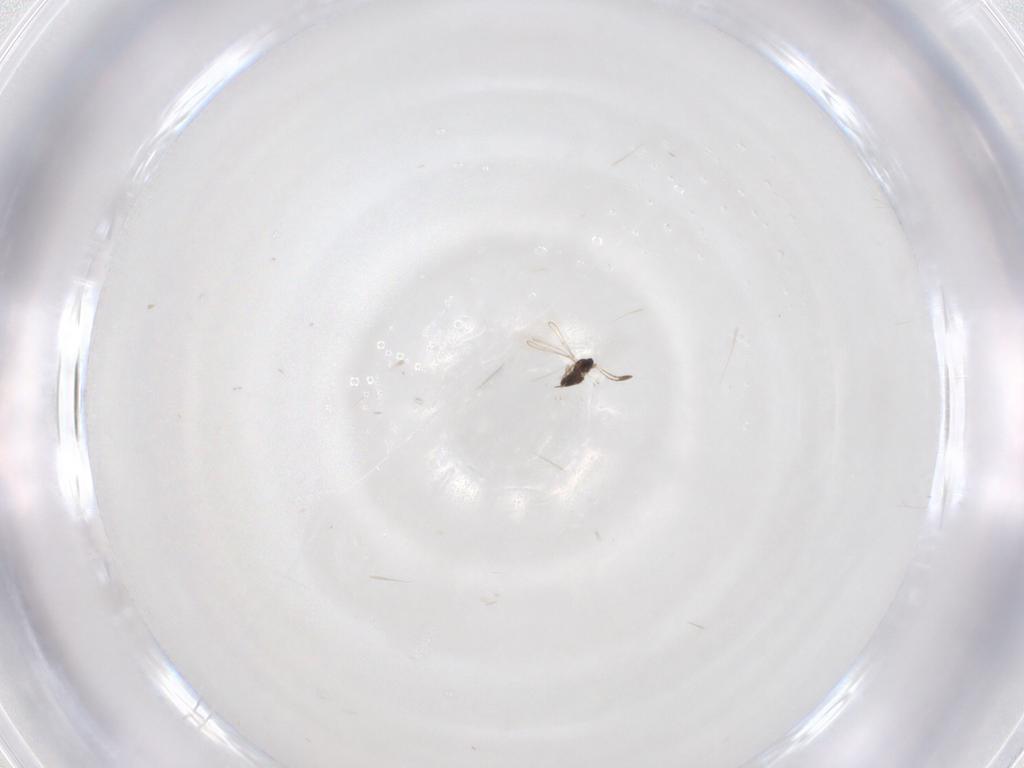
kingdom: Animalia
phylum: Arthropoda
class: Insecta
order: Hymenoptera
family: Mymaridae
